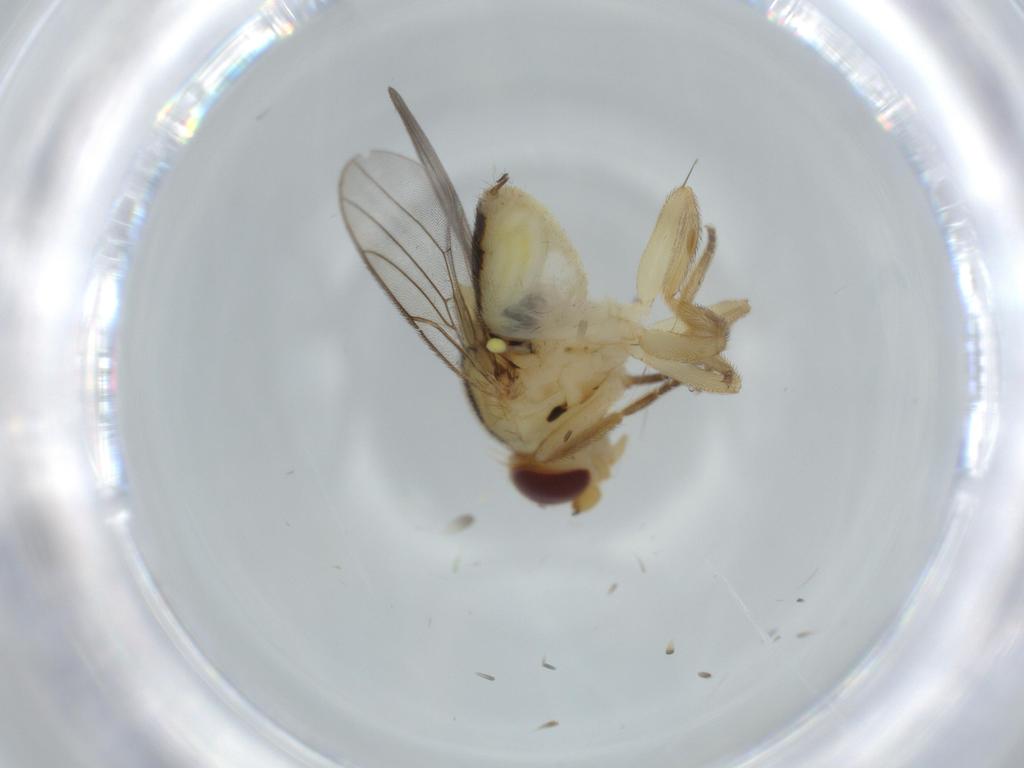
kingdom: Animalia
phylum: Arthropoda
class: Insecta
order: Diptera
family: Chloropidae
